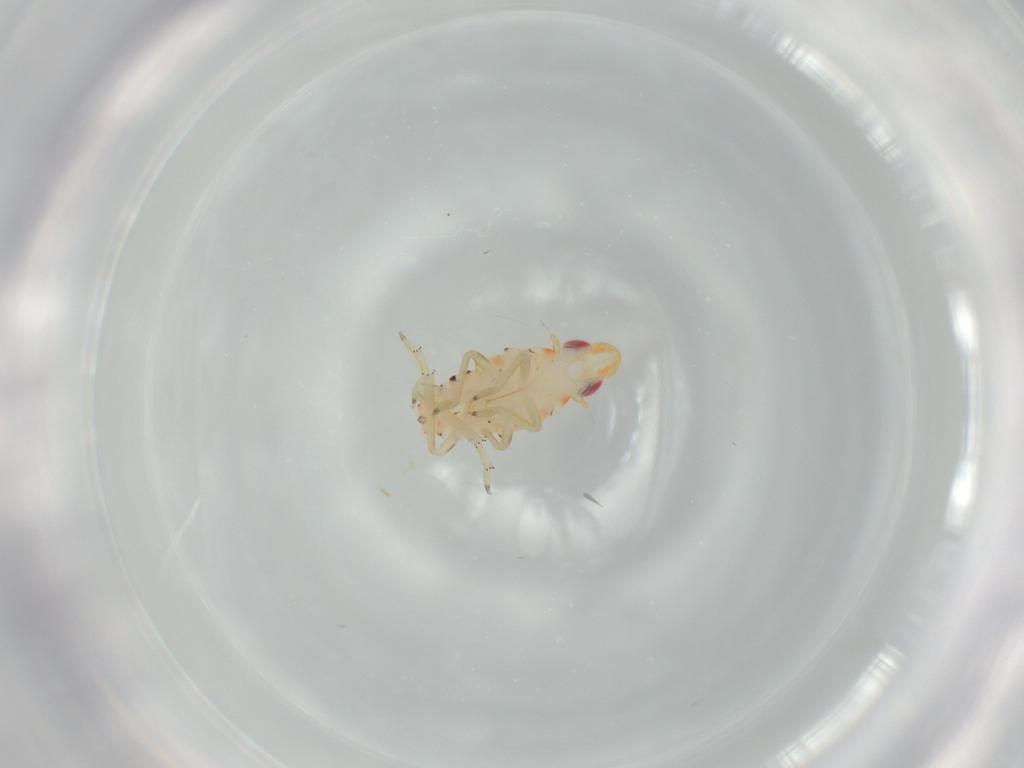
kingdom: Animalia
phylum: Arthropoda
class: Insecta
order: Hemiptera
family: Tropiduchidae
